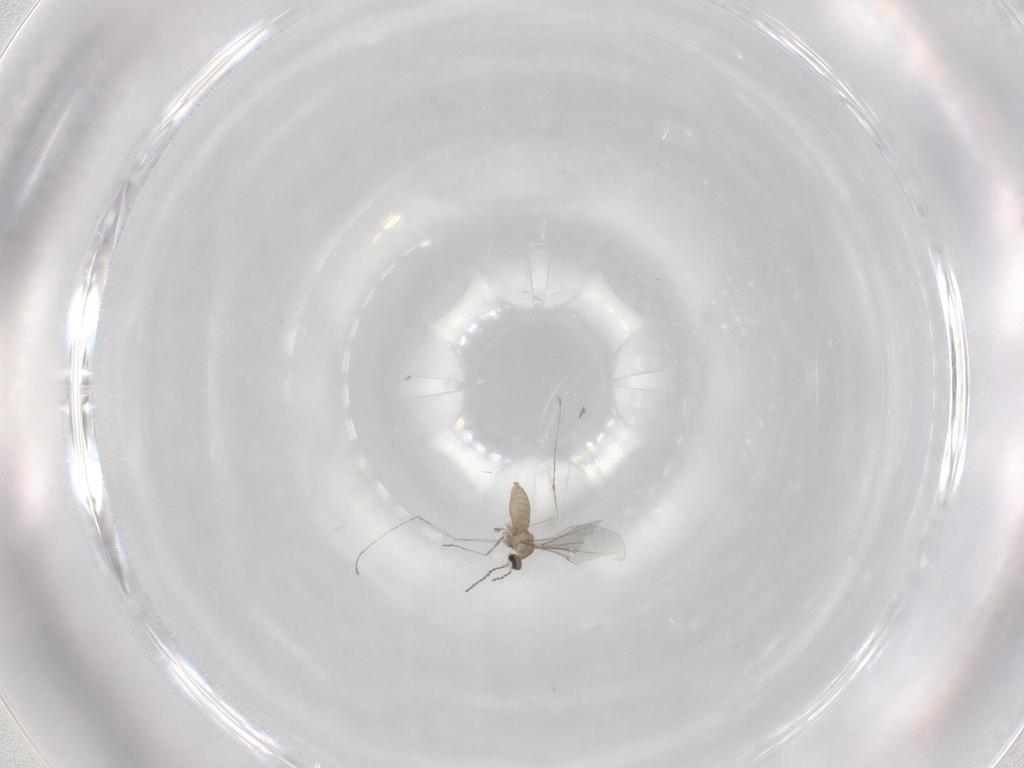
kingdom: Animalia
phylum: Arthropoda
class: Insecta
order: Diptera
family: Cecidomyiidae
